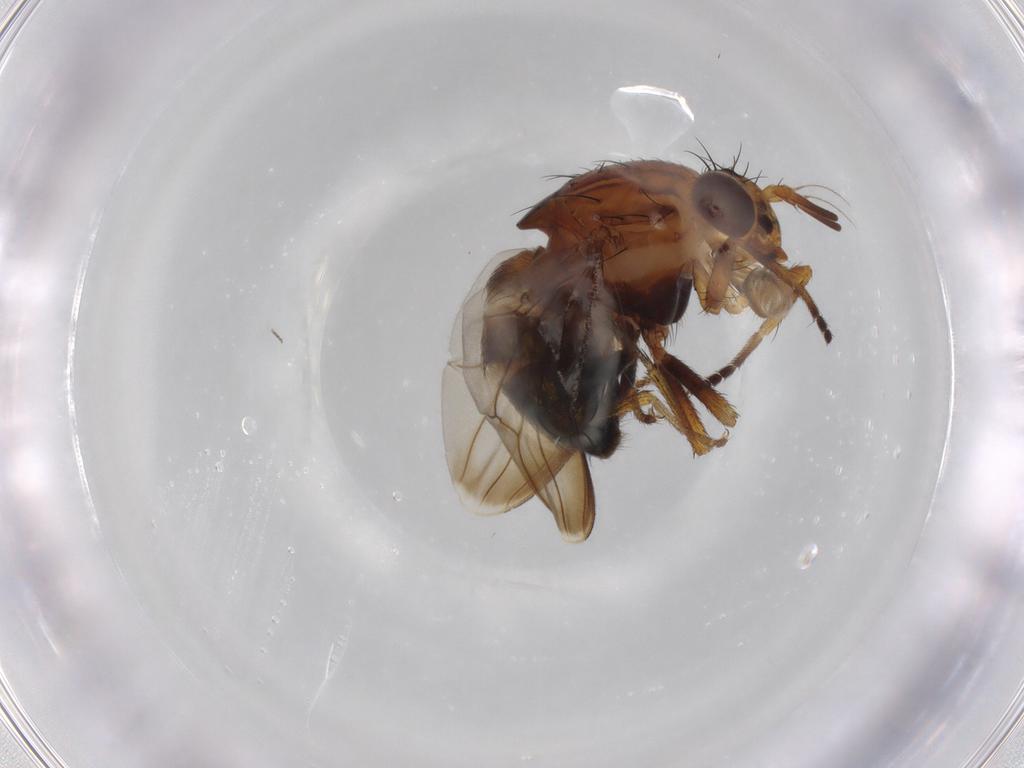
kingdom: Animalia
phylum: Arthropoda
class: Insecta
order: Diptera
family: Lauxaniidae
